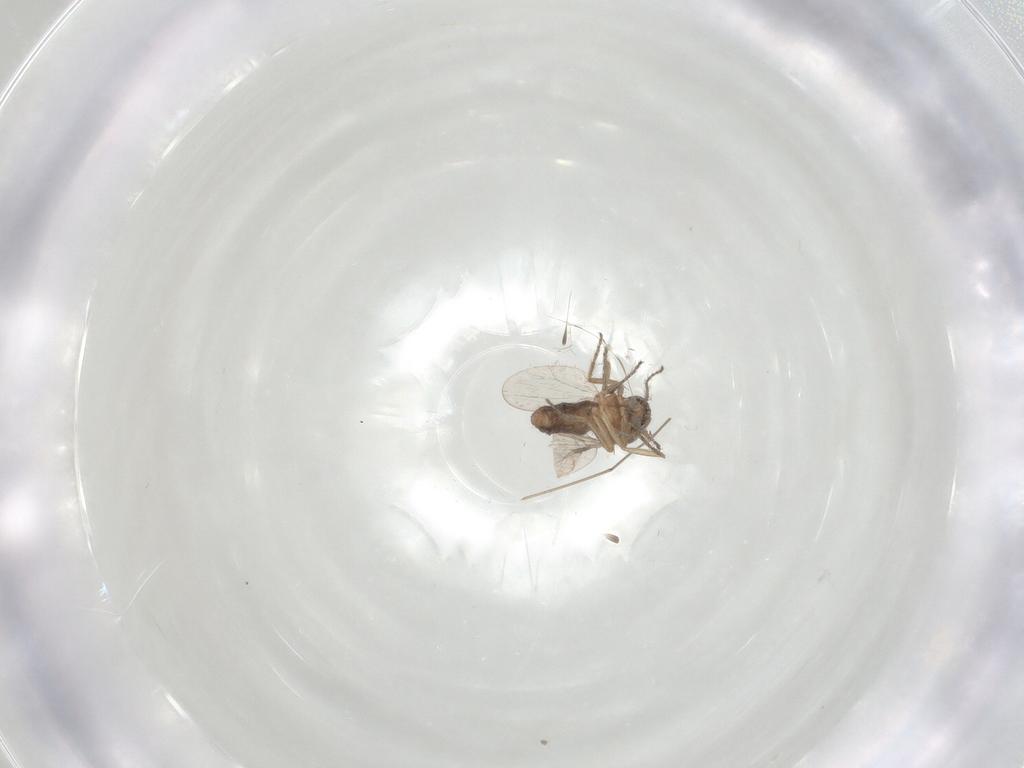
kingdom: Animalia
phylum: Arthropoda
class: Insecta
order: Diptera
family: Ceratopogonidae
